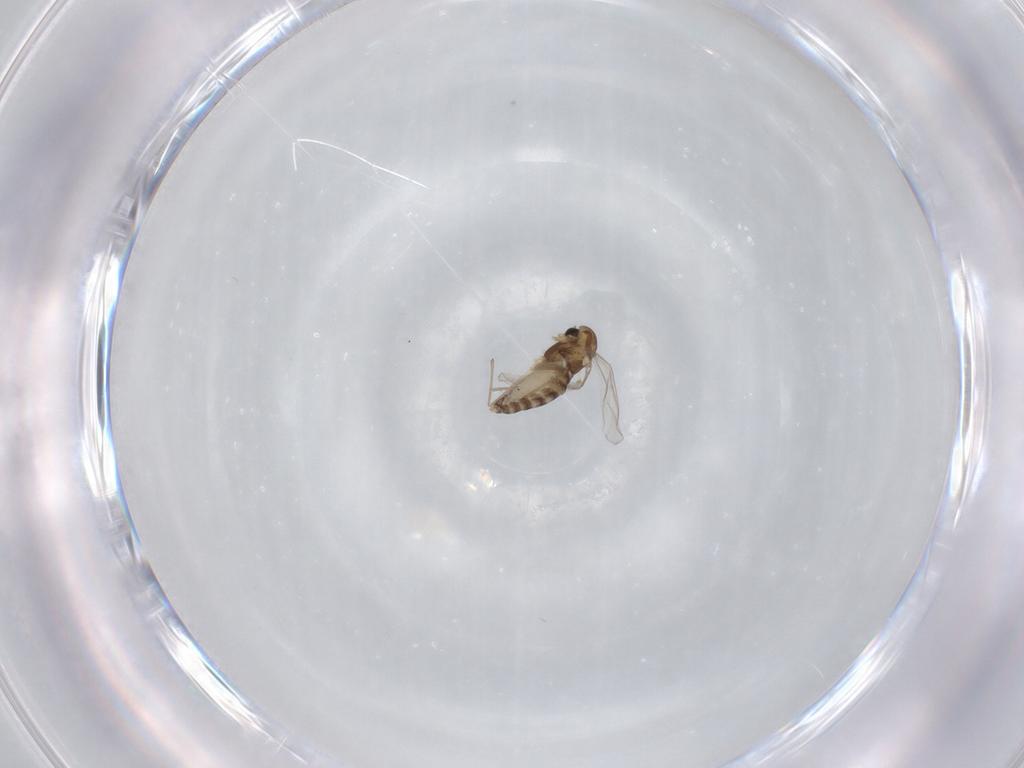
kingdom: Animalia
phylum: Arthropoda
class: Insecta
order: Diptera
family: Chironomidae
